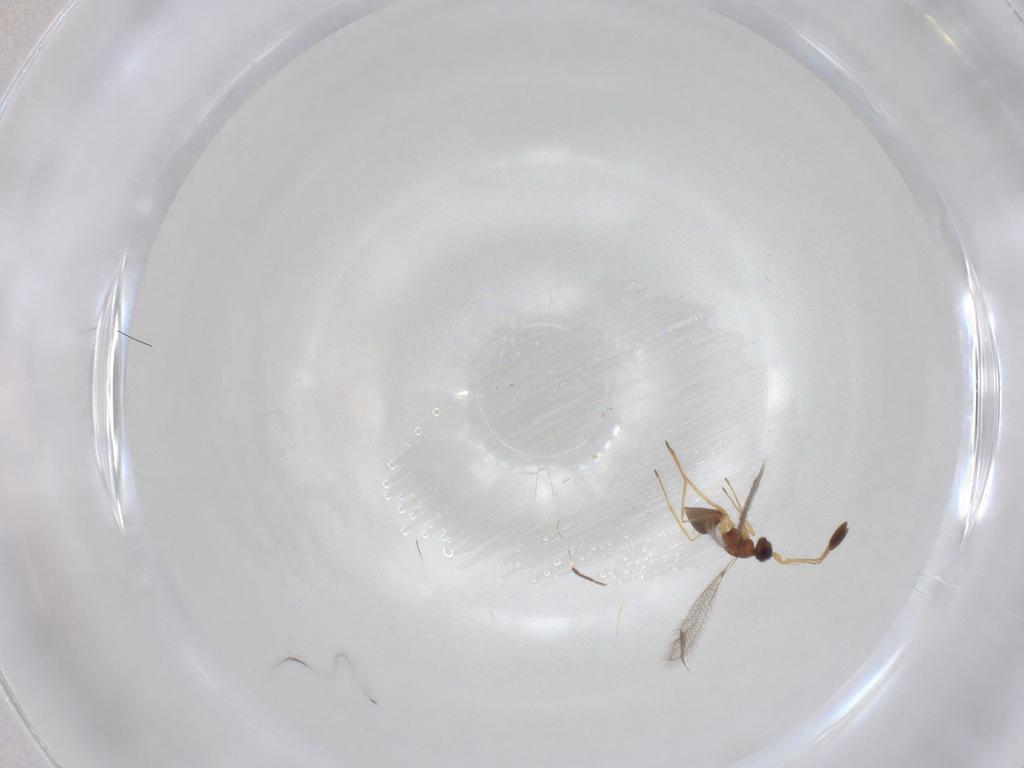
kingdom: Animalia
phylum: Arthropoda
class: Insecta
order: Hymenoptera
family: Mymaridae
